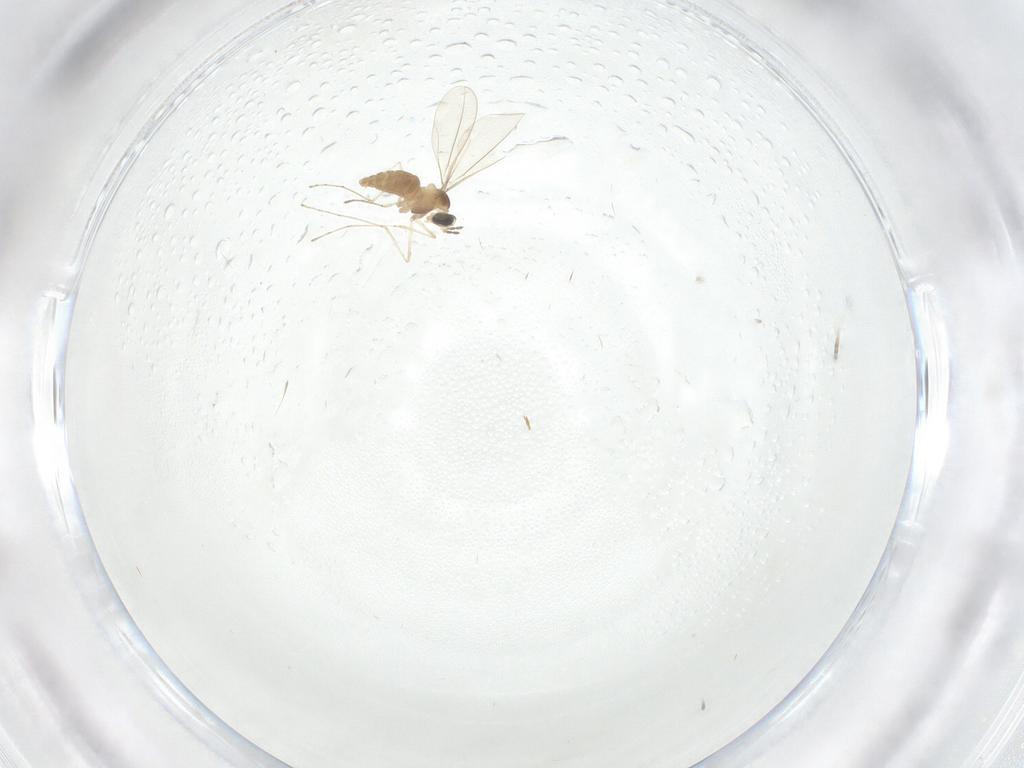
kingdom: Animalia
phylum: Arthropoda
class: Insecta
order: Diptera
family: Cecidomyiidae
